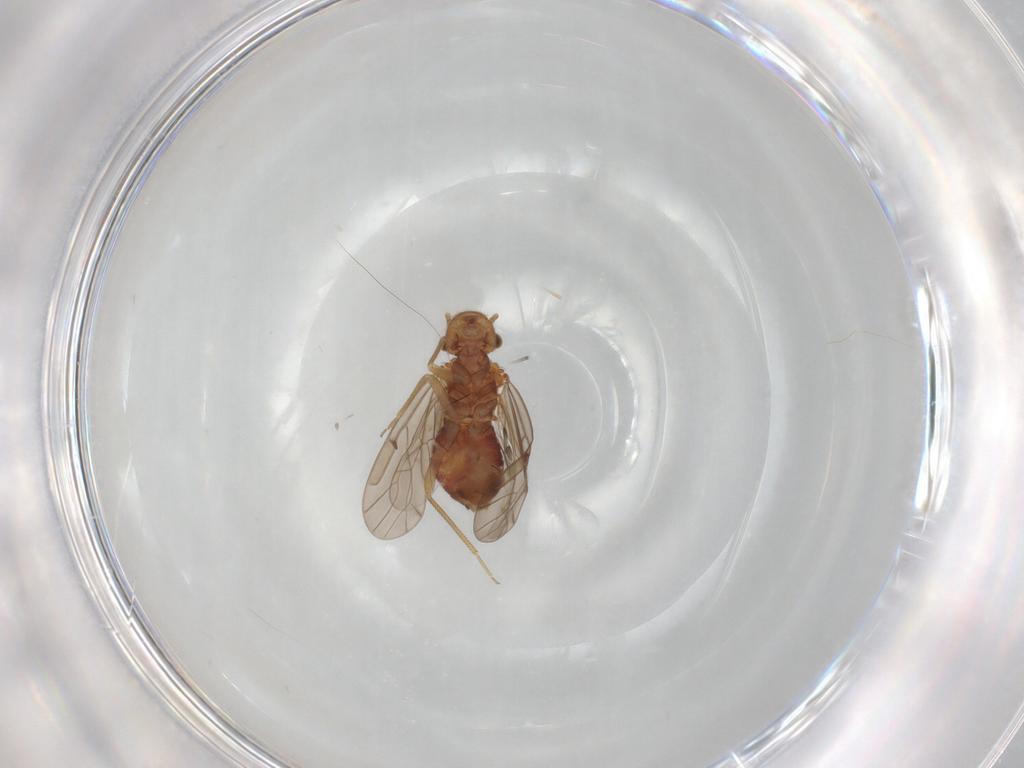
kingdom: Animalia
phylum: Arthropoda
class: Insecta
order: Psocodea
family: Ectopsocidae
